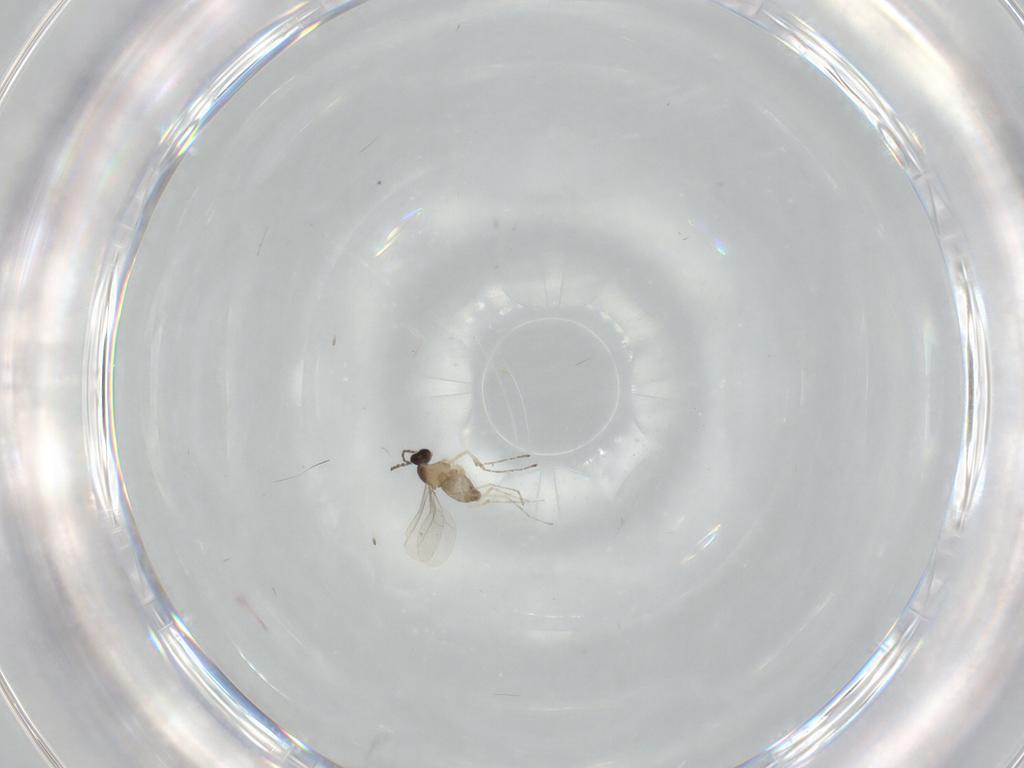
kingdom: Animalia
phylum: Arthropoda
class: Insecta
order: Diptera
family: Cecidomyiidae
